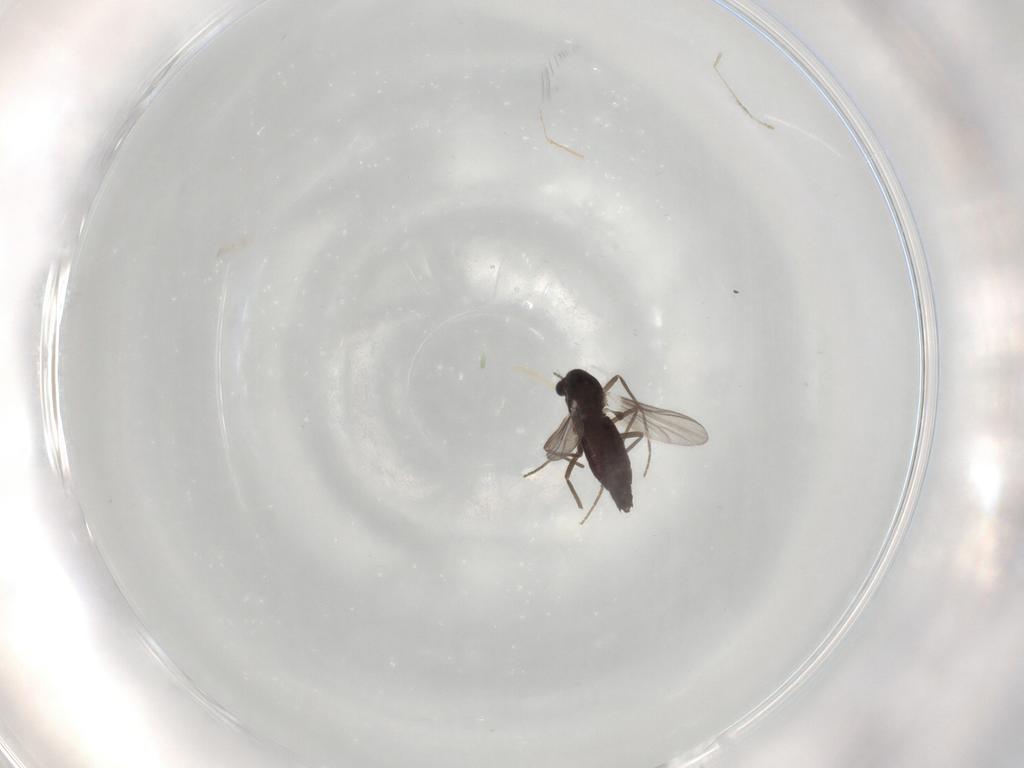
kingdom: Animalia
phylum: Arthropoda
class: Insecta
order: Diptera
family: Chironomidae
